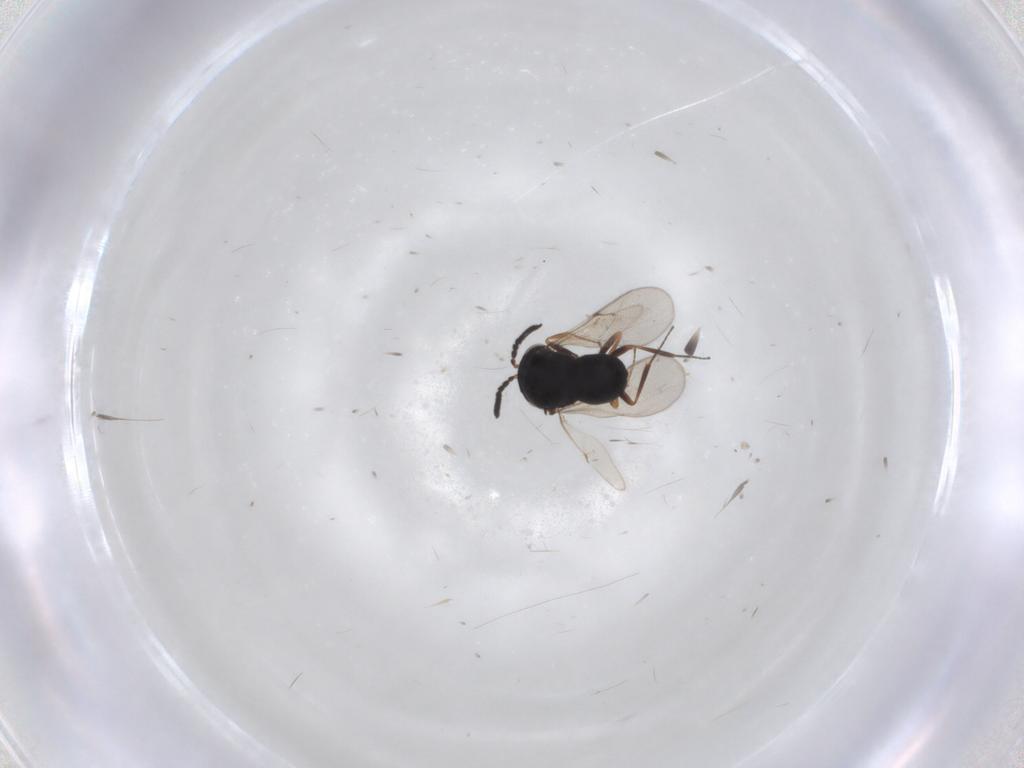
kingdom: Animalia
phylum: Arthropoda
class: Insecta
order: Hymenoptera
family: Scelionidae
